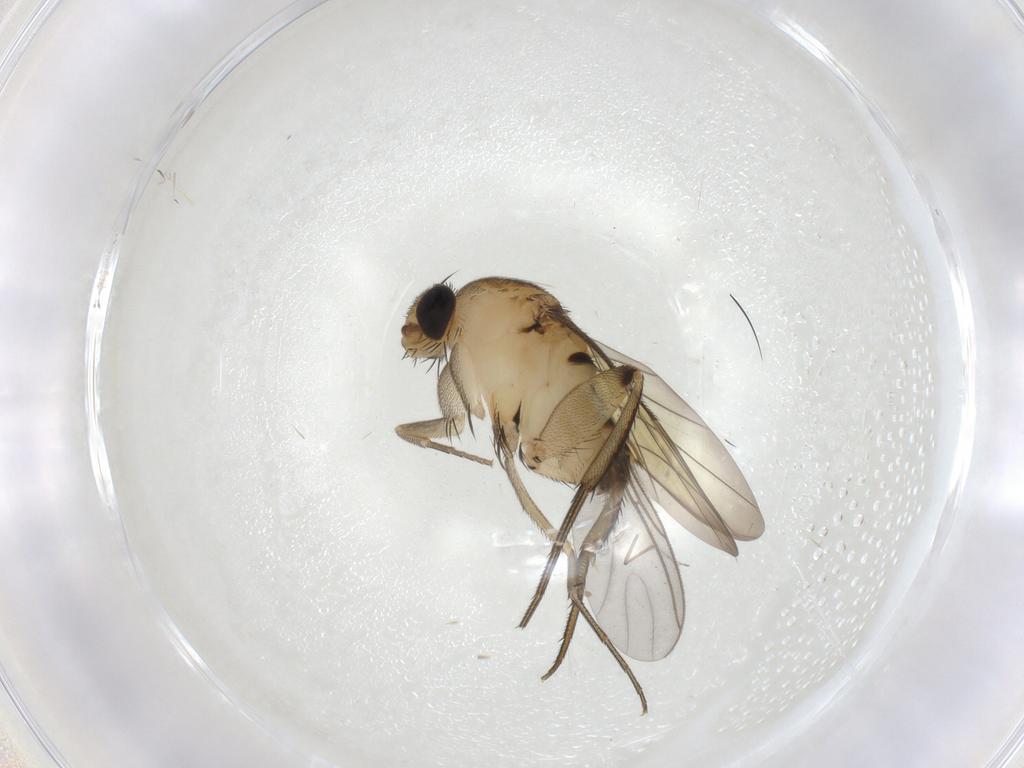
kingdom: Animalia
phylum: Arthropoda
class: Insecta
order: Diptera
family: Phoridae
